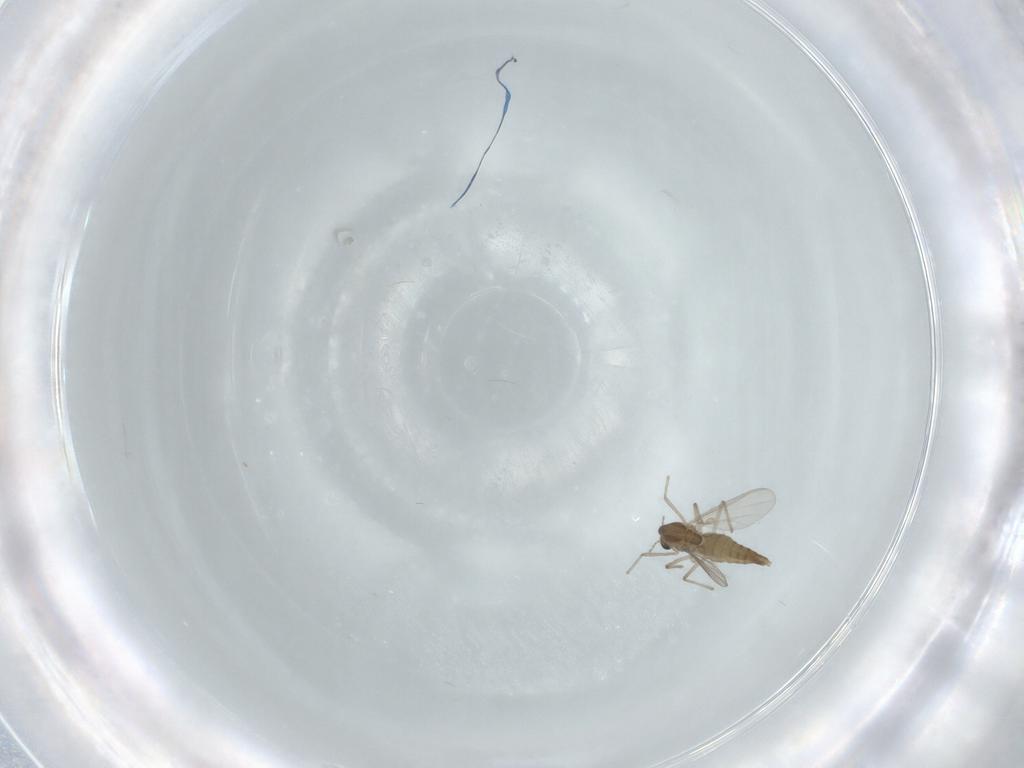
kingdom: Animalia
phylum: Arthropoda
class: Insecta
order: Diptera
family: Chironomidae
